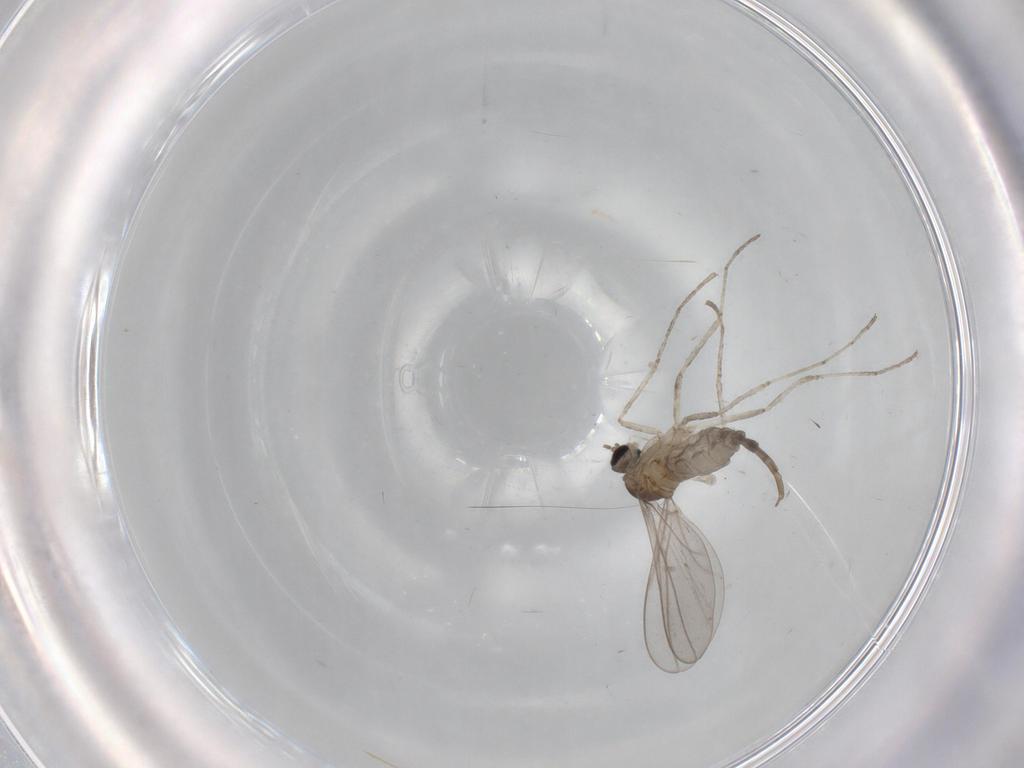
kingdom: Animalia
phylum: Arthropoda
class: Insecta
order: Diptera
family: Cecidomyiidae
